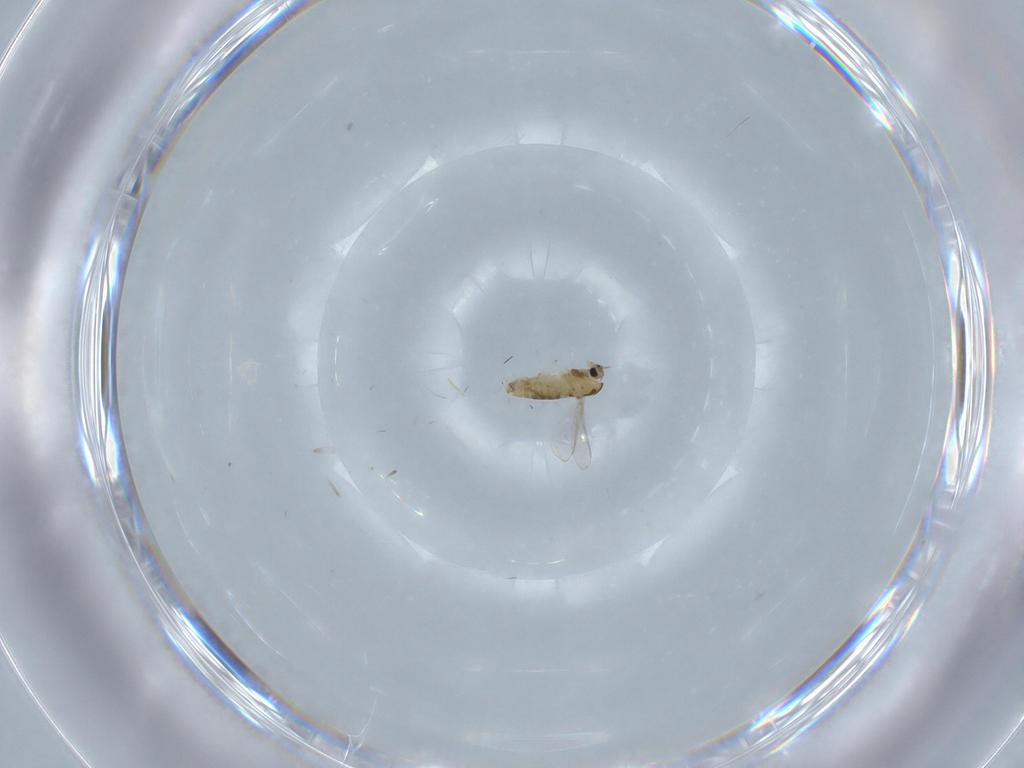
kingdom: Animalia
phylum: Arthropoda
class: Insecta
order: Diptera
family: Chironomidae
